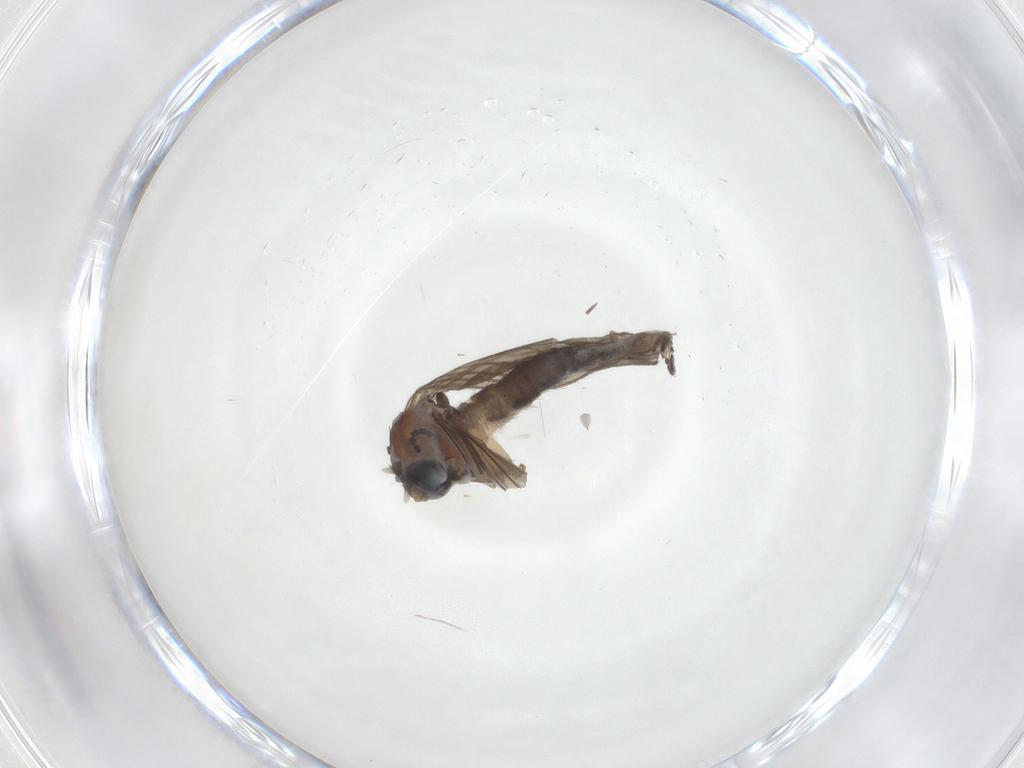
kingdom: Animalia
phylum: Arthropoda
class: Insecta
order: Diptera
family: Sciaridae
